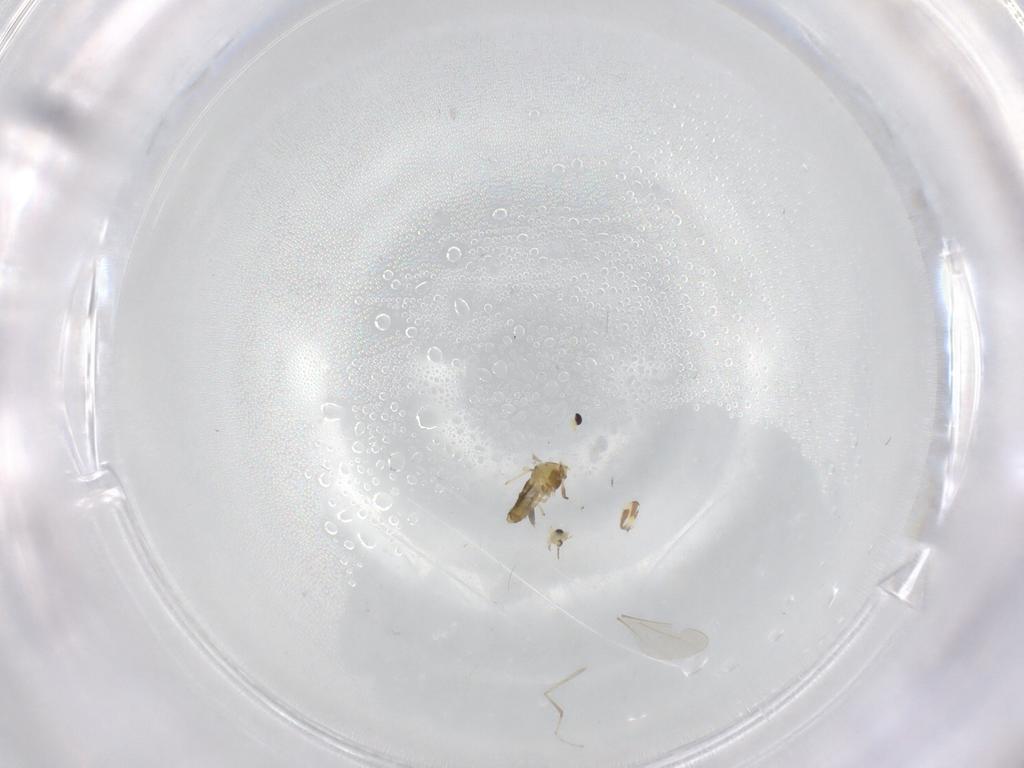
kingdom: Animalia
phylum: Arthropoda
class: Insecta
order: Diptera
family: Chironomidae
